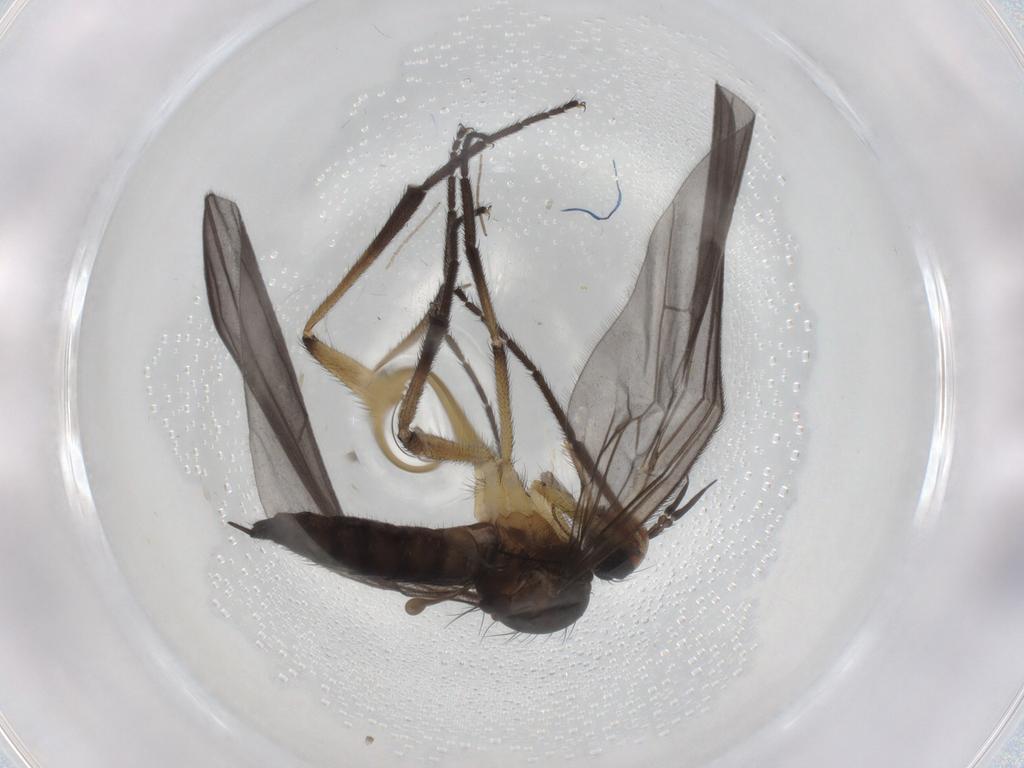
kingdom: Animalia
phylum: Arthropoda
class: Insecta
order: Diptera
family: Empididae
